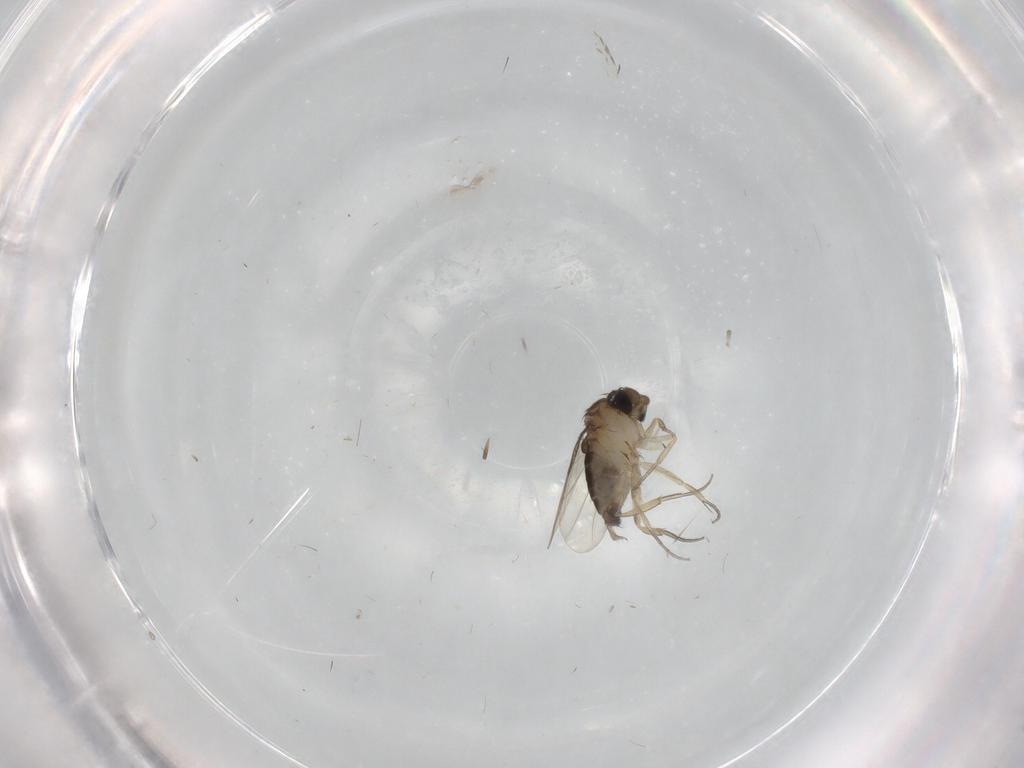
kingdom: Animalia
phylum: Arthropoda
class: Insecta
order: Diptera
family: Chironomidae
